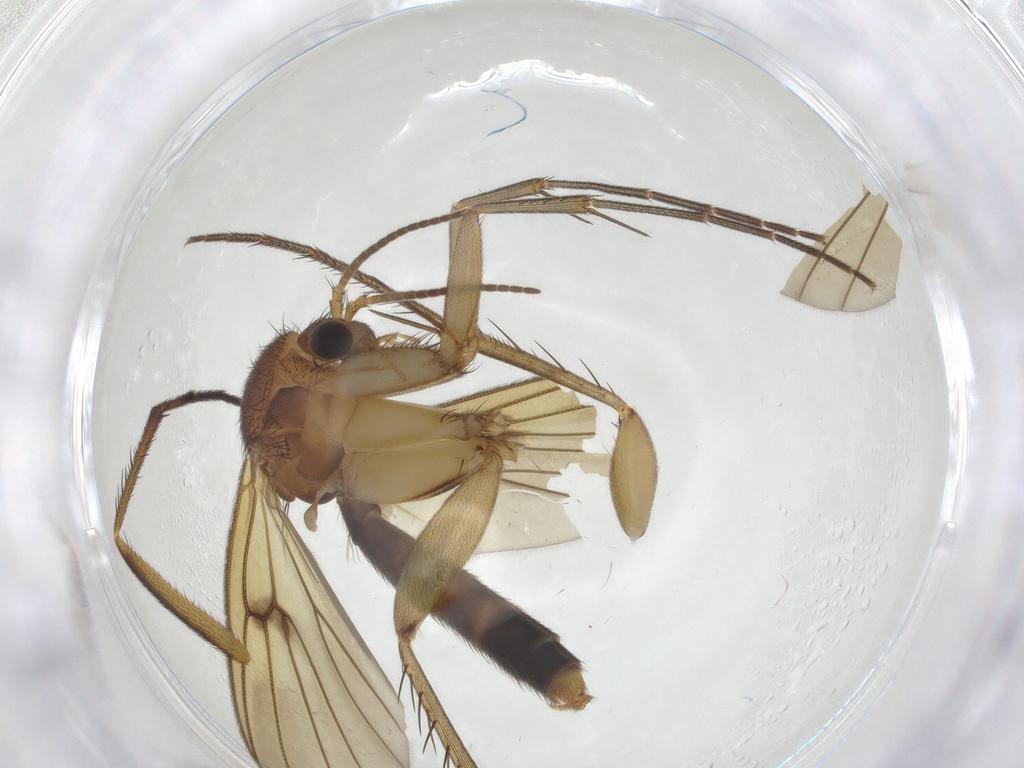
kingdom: Animalia
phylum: Arthropoda
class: Insecta
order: Diptera
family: Mycetophilidae
